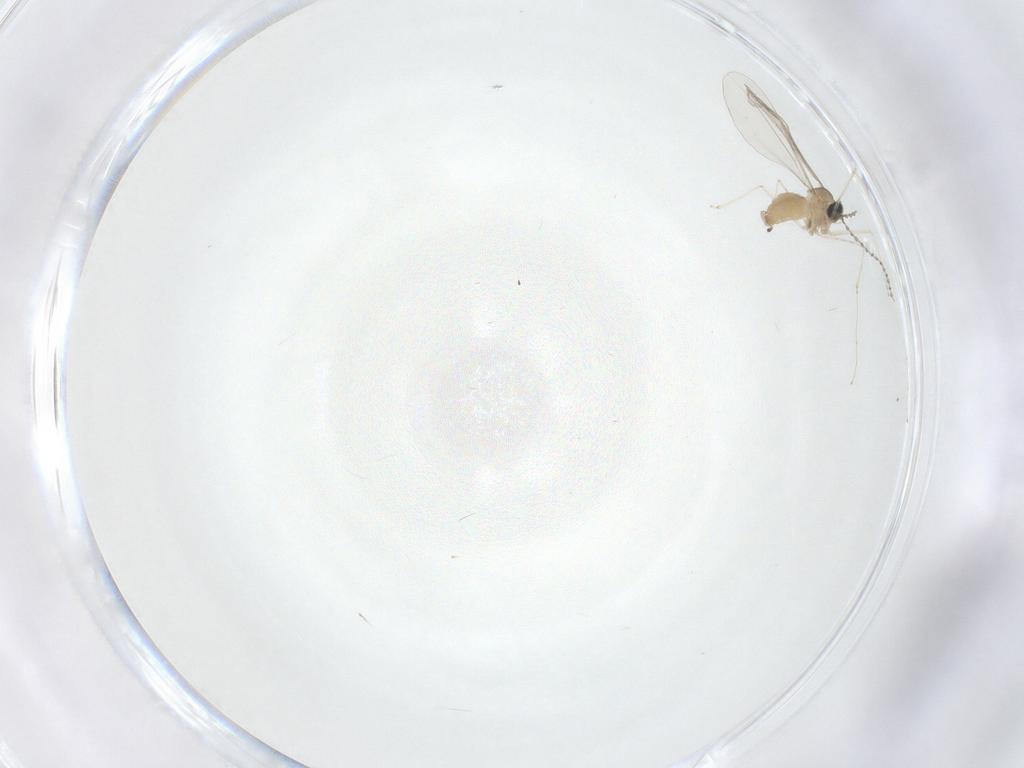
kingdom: Animalia
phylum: Arthropoda
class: Insecta
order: Diptera
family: Cecidomyiidae
